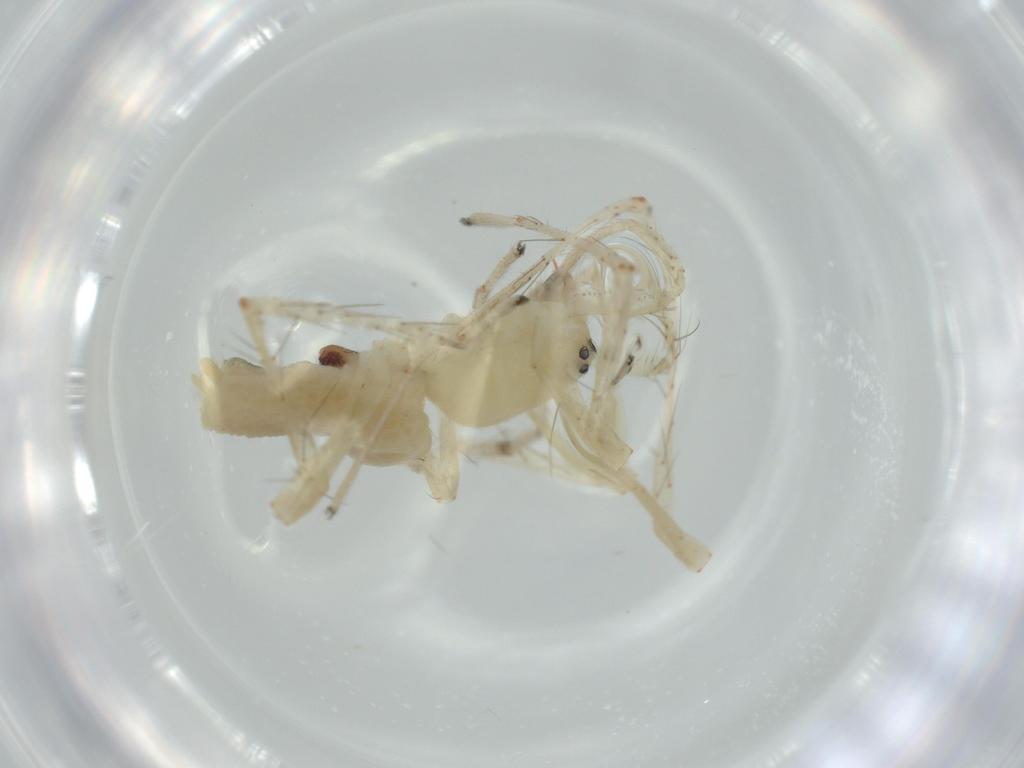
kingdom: Animalia
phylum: Arthropoda
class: Arachnida
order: Araneae
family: Anyphaenidae
